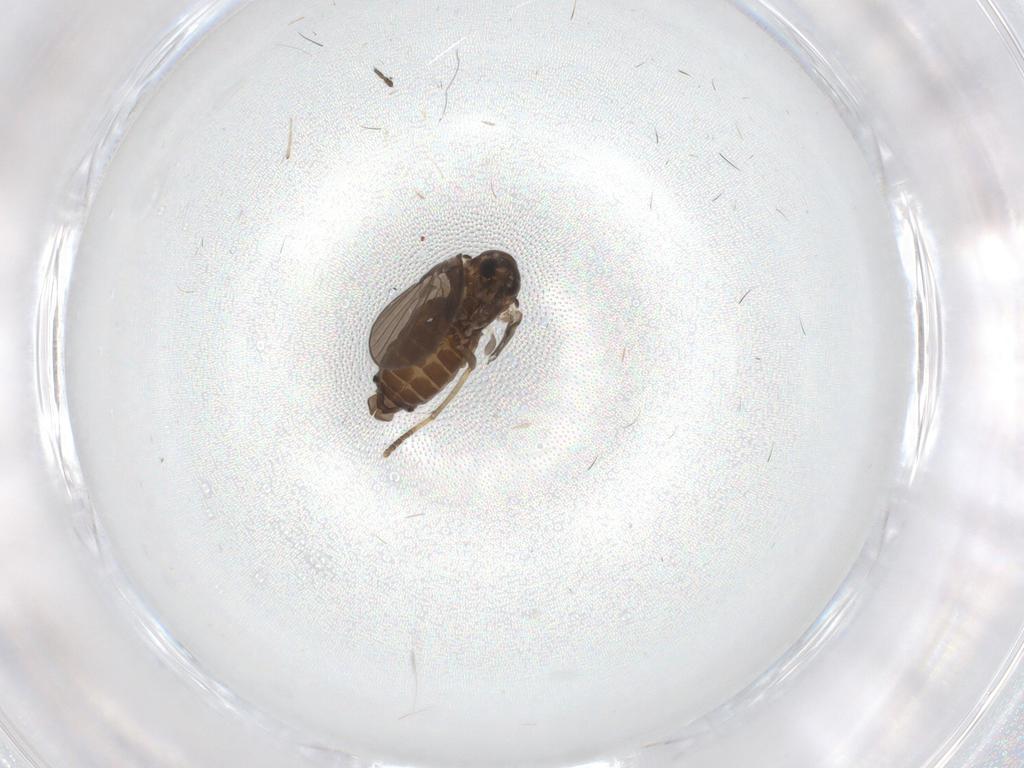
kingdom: Animalia
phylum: Arthropoda
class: Insecta
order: Diptera
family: Psychodidae
